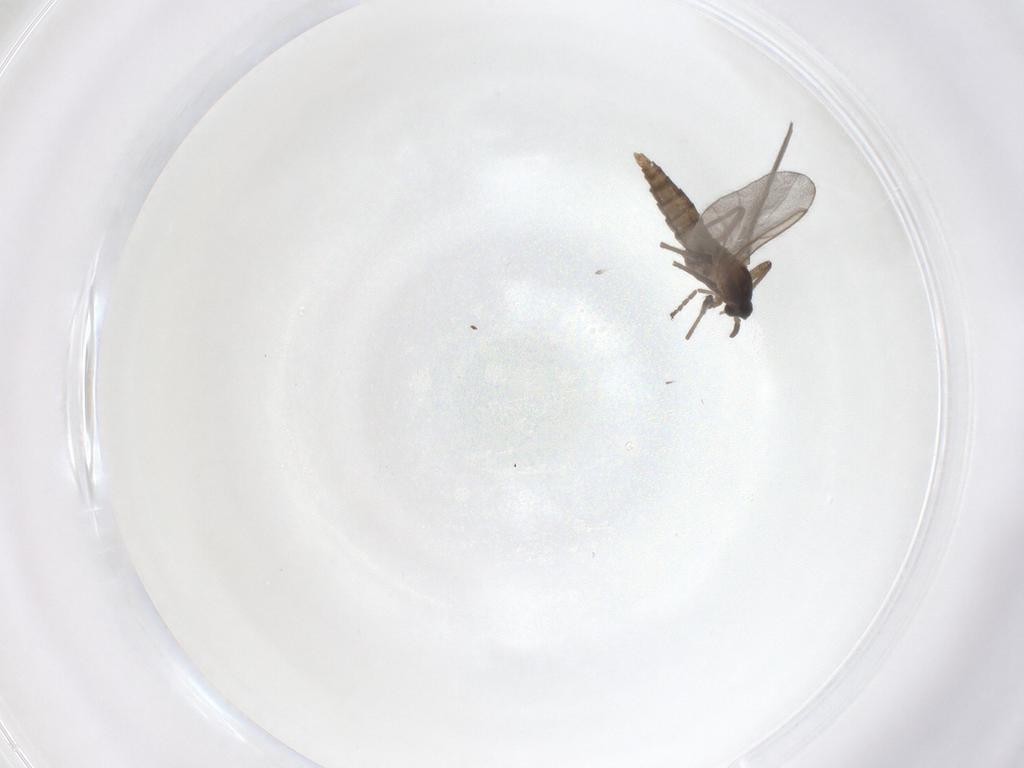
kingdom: Animalia
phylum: Arthropoda
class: Insecta
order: Diptera
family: Cecidomyiidae
